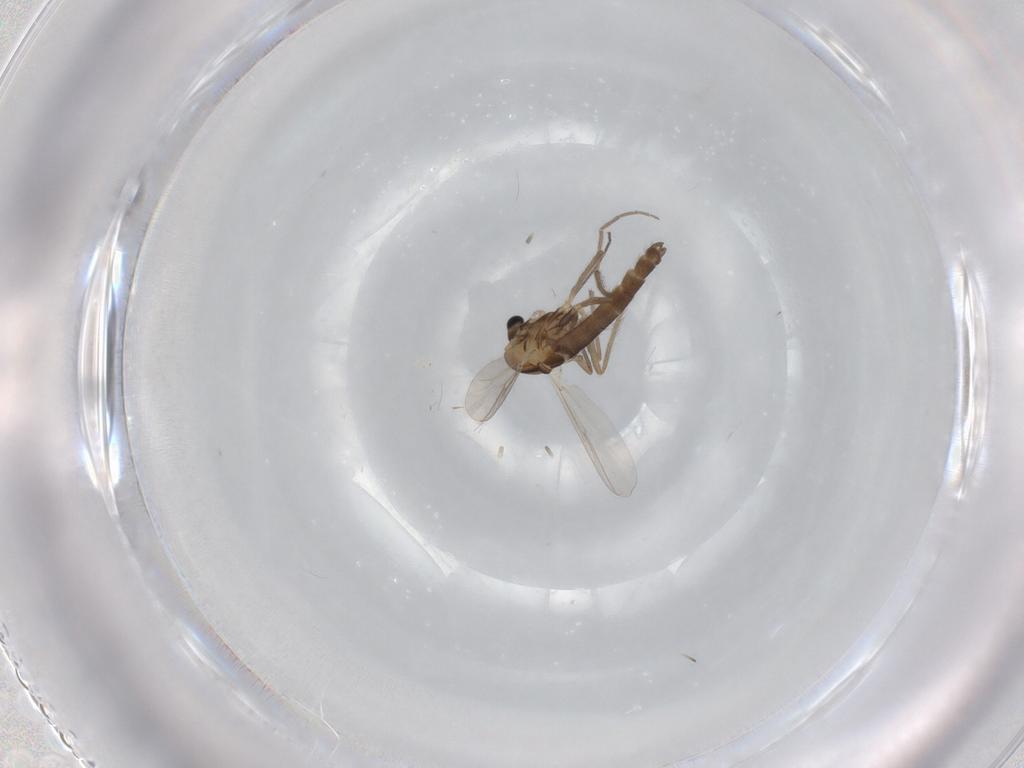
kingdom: Animalia
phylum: Arthropoda
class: Insecta
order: Diptera
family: Chironomidae
